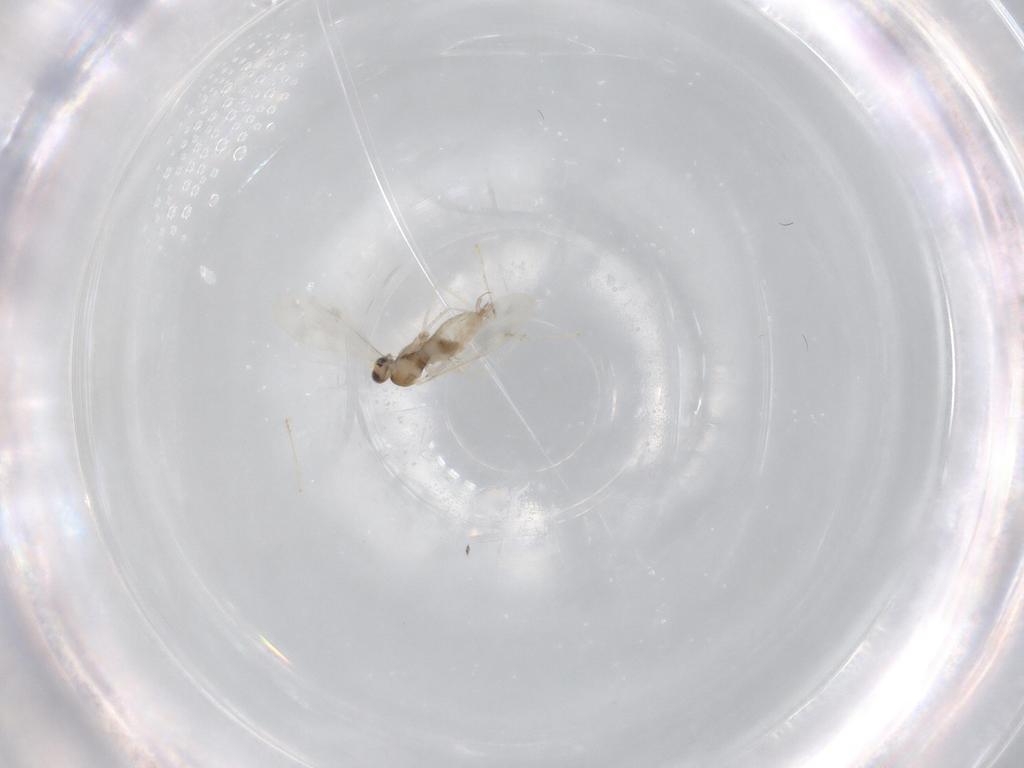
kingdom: Animalia
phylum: Arthropoda
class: Insecta
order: Diptera
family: Cecidomyiidae
